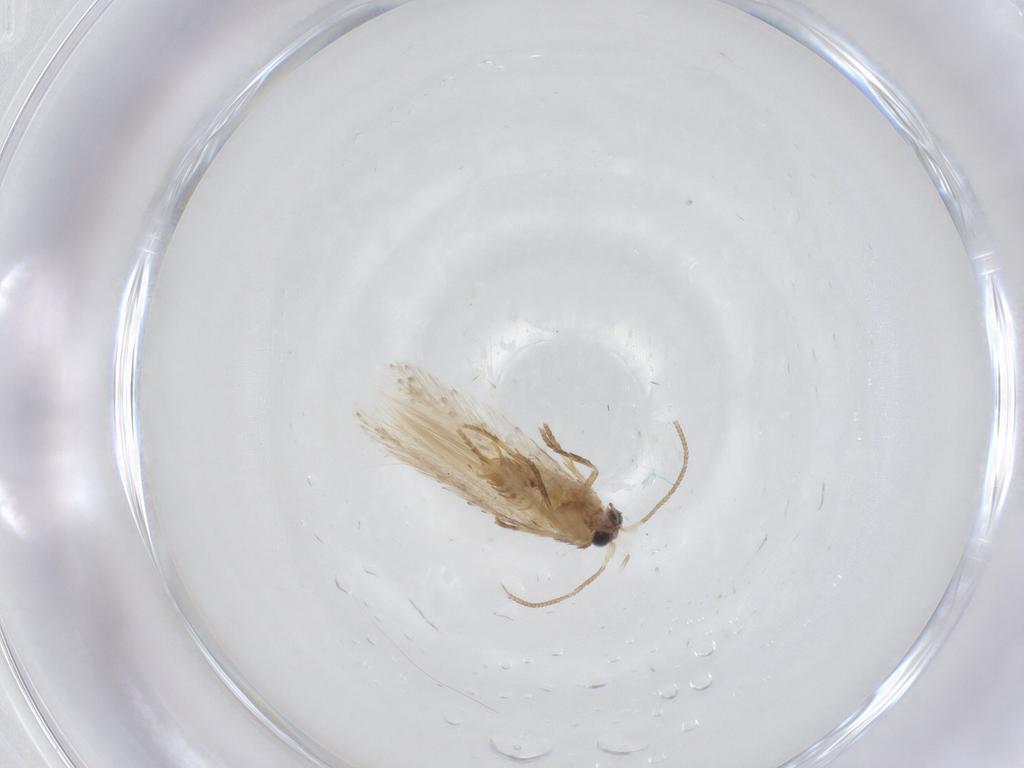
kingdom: Animalia
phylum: Arthropoda
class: Insecta
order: Lepidoptera
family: Nepticulidae
